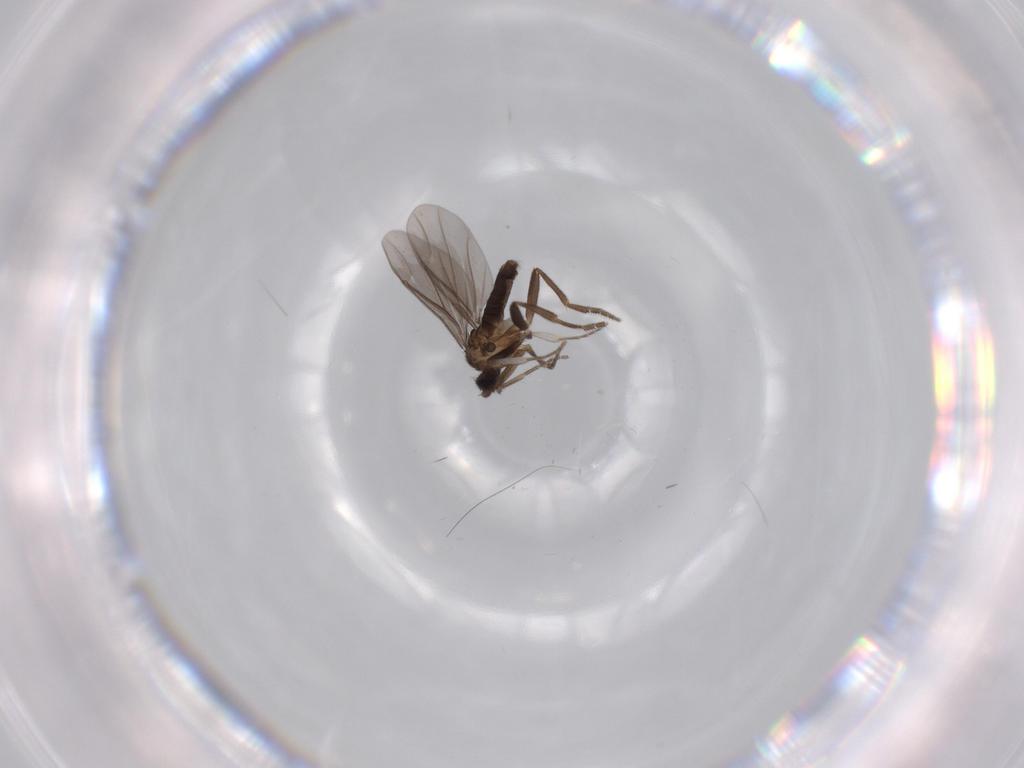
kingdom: Animalia
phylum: Arthropoda
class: Insecta
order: Diptera
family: Phoridae
